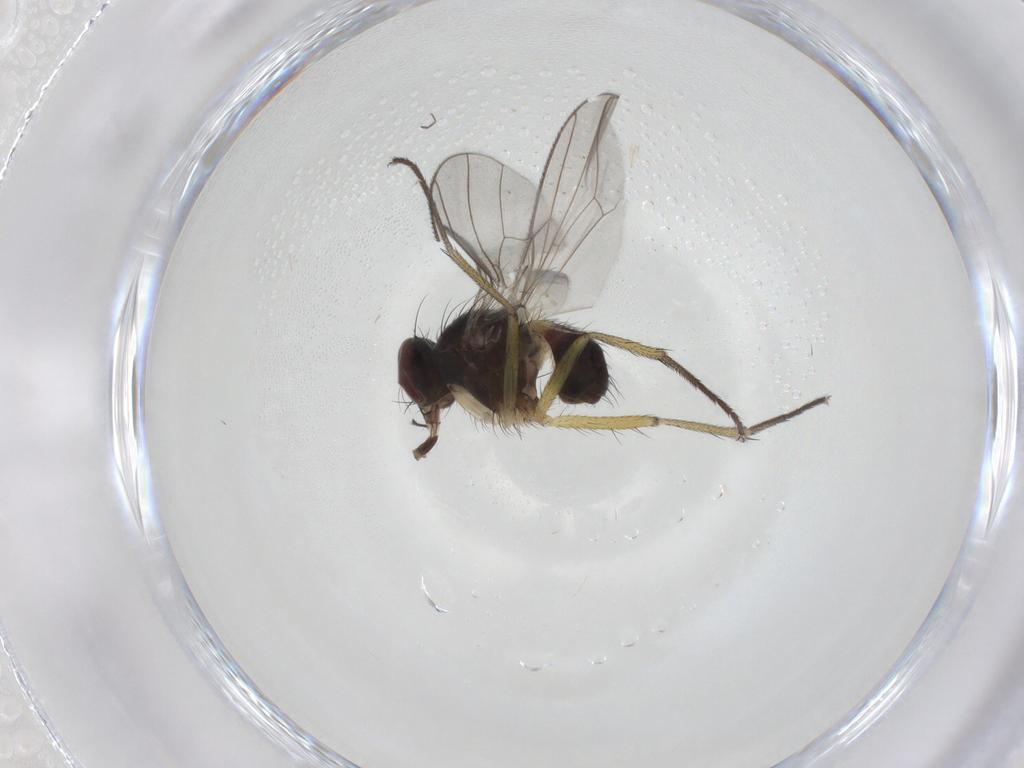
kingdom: Animalia
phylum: Arthropoda
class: Insecta
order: Diptera
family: Muscidae
